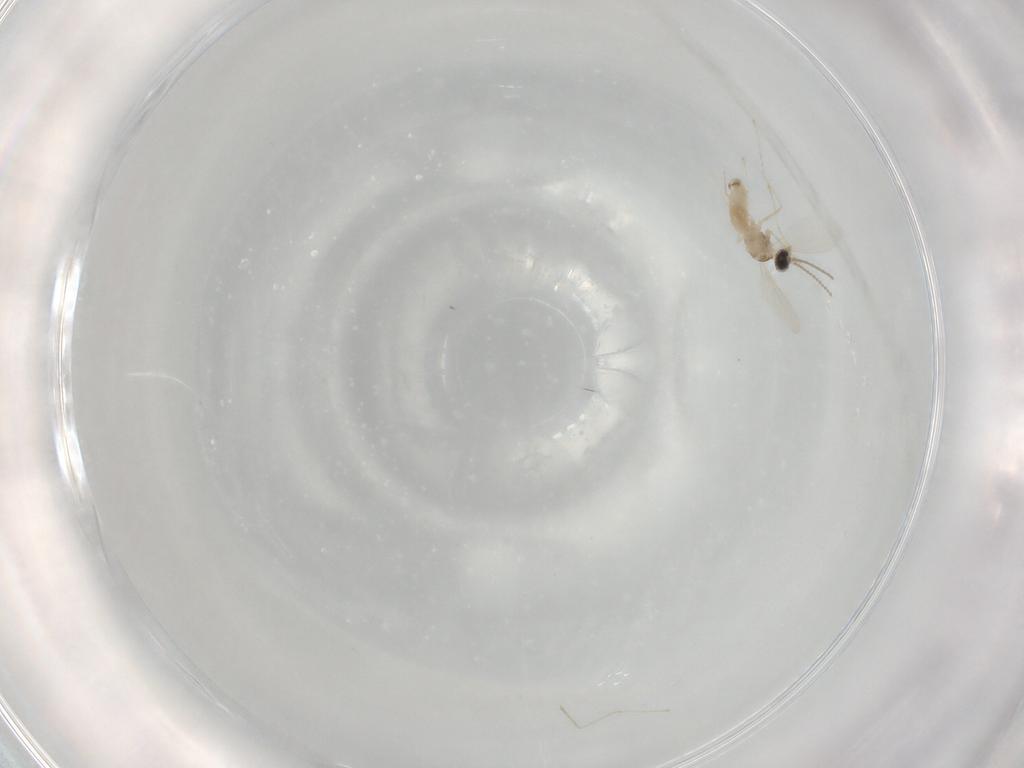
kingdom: Animalia
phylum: Arthropoda
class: Insecta
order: Diptera
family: Cecidomyiidae
